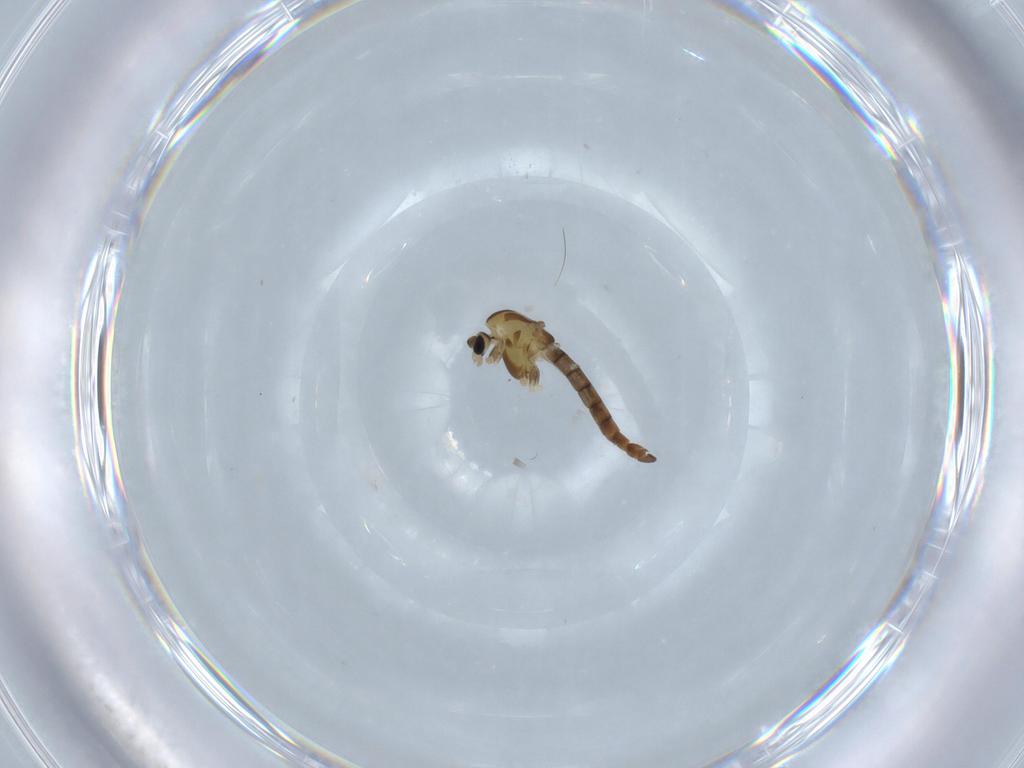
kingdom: Animalia
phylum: Arthropoda
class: Insecta
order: Diptera
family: Chironomidae
